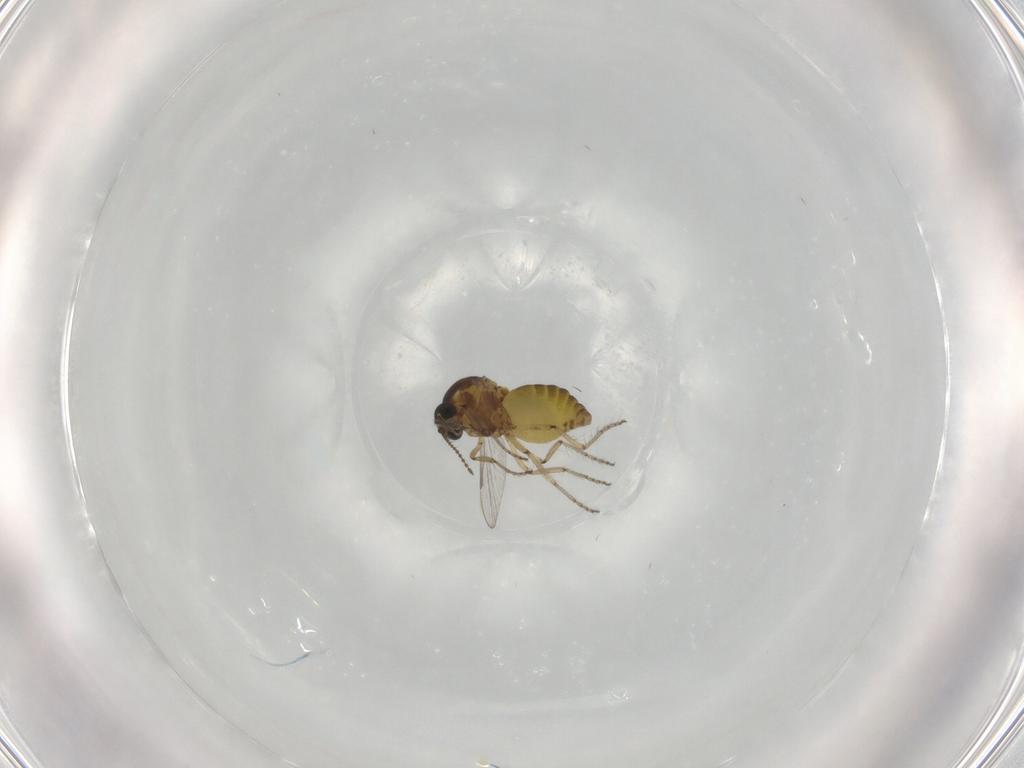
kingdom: Animalia
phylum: Arthropoda
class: Insecta
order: Diptera
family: Ceratopogonidae
